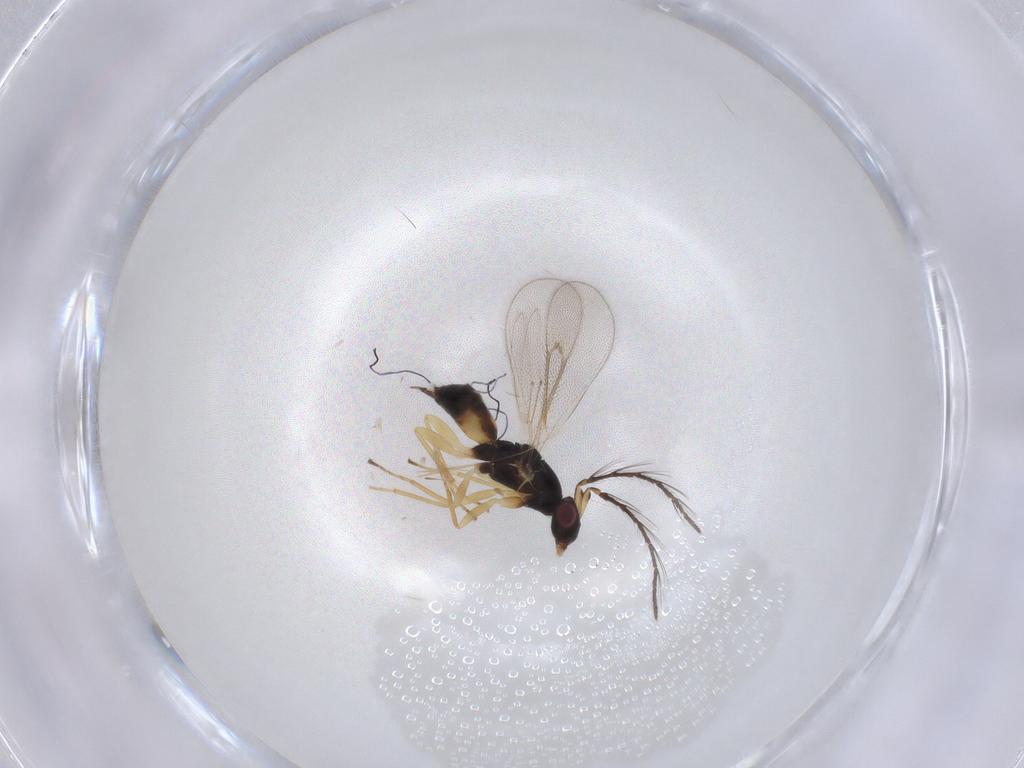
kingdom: Animalia
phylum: Arthropoda
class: Insecta
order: Hymenoptera
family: Eulophidae
